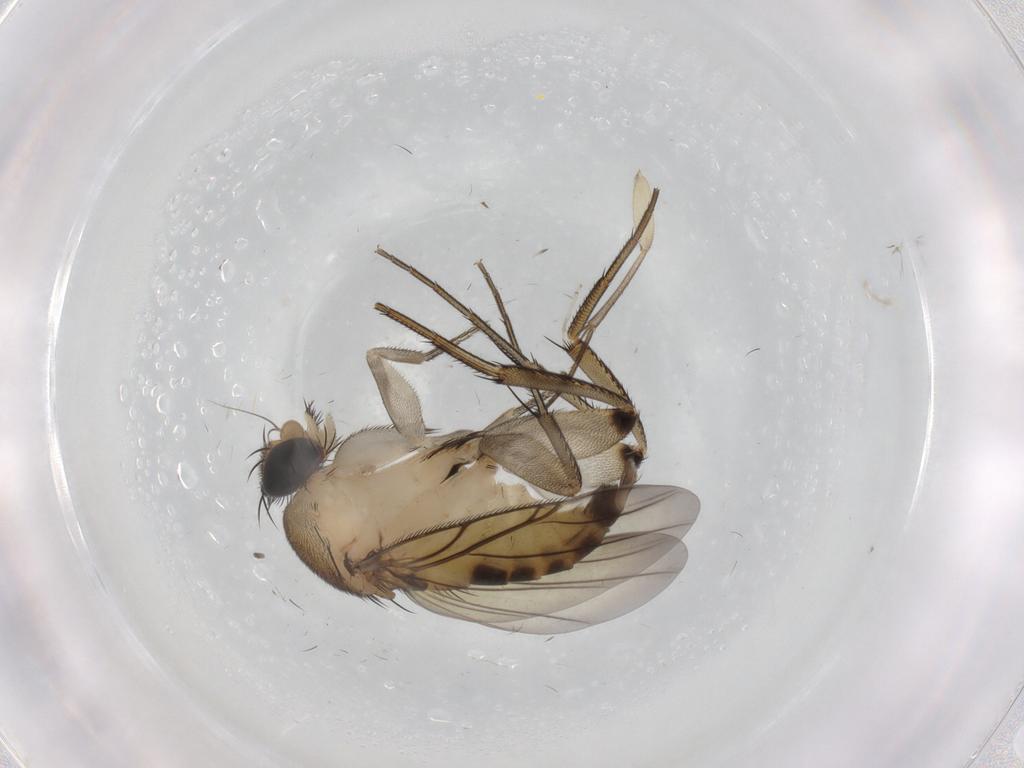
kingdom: Animalia
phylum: Arthropoda
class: Insecta
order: Diptera
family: Phoridae
